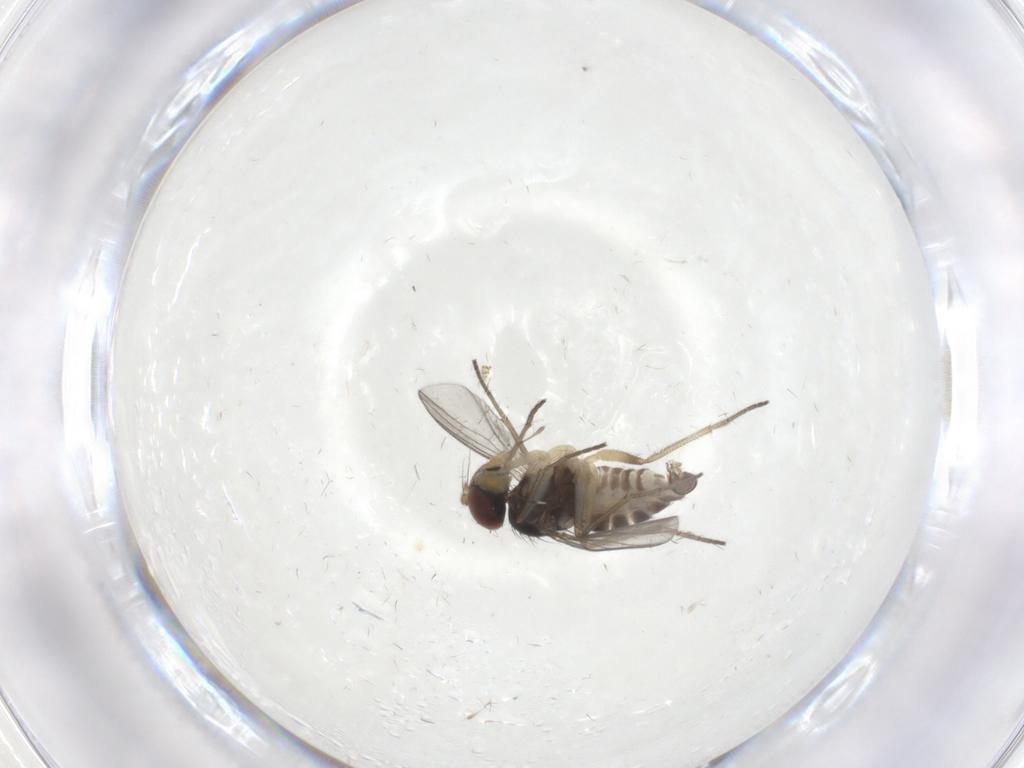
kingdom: Animalia
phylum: Arthropoda
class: Insecta
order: Diptera
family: Dolichopodidae
